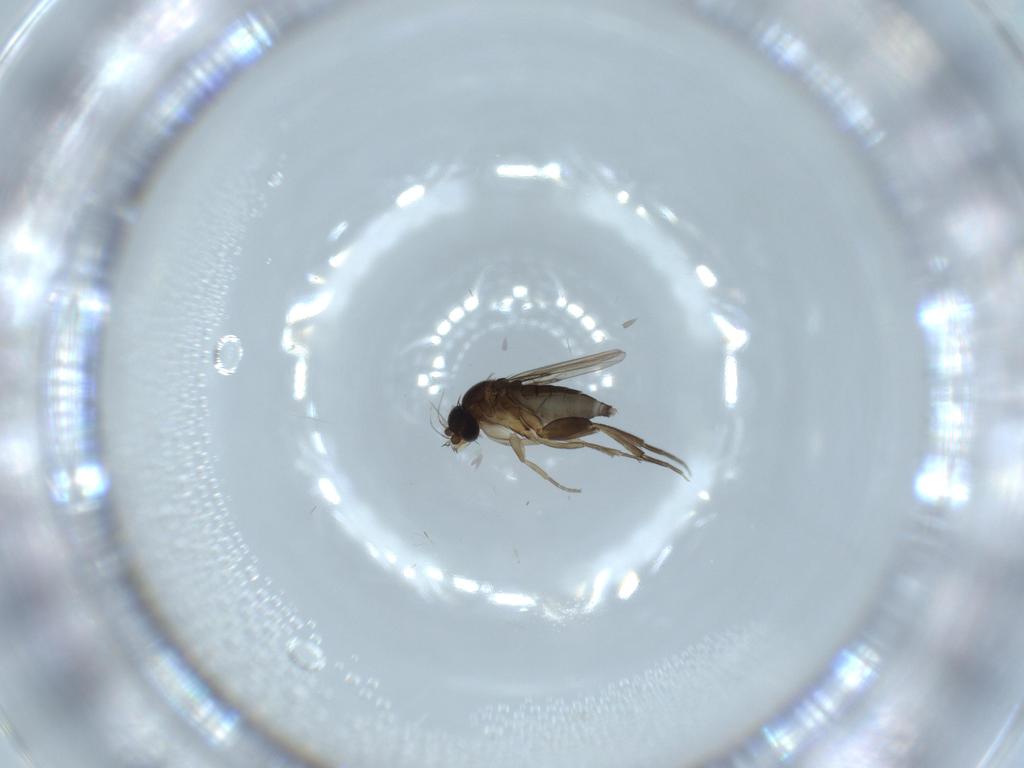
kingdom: Animalia
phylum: Arthropoda
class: Insecta
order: Diptera
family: Phoridae
